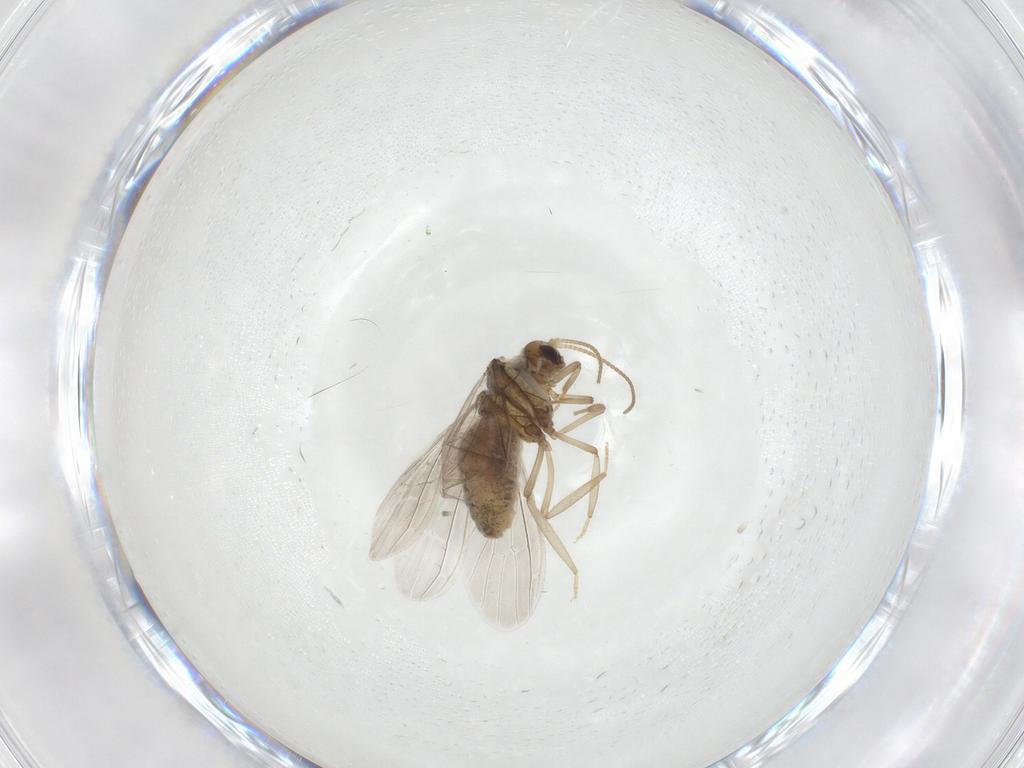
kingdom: Animalia
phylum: Arthropoda
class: Insecta
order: Neuroptera
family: Coniopterygidae
